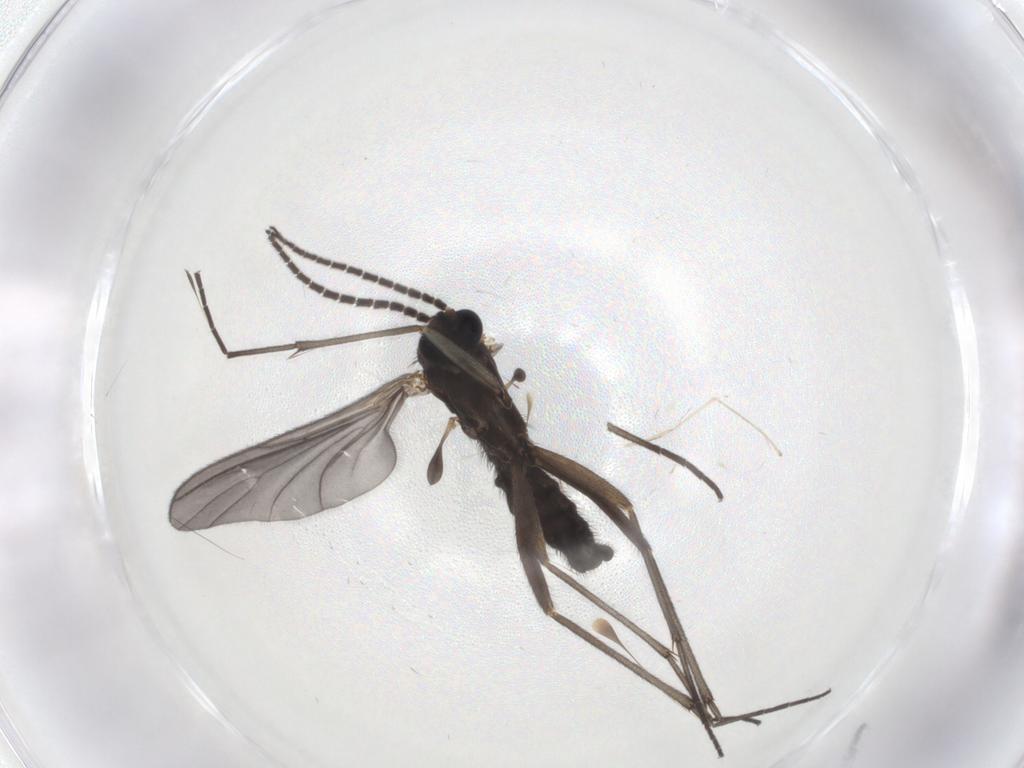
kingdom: Animalia
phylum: Arthropoda
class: Insecta
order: Diptera
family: Sciaridae
